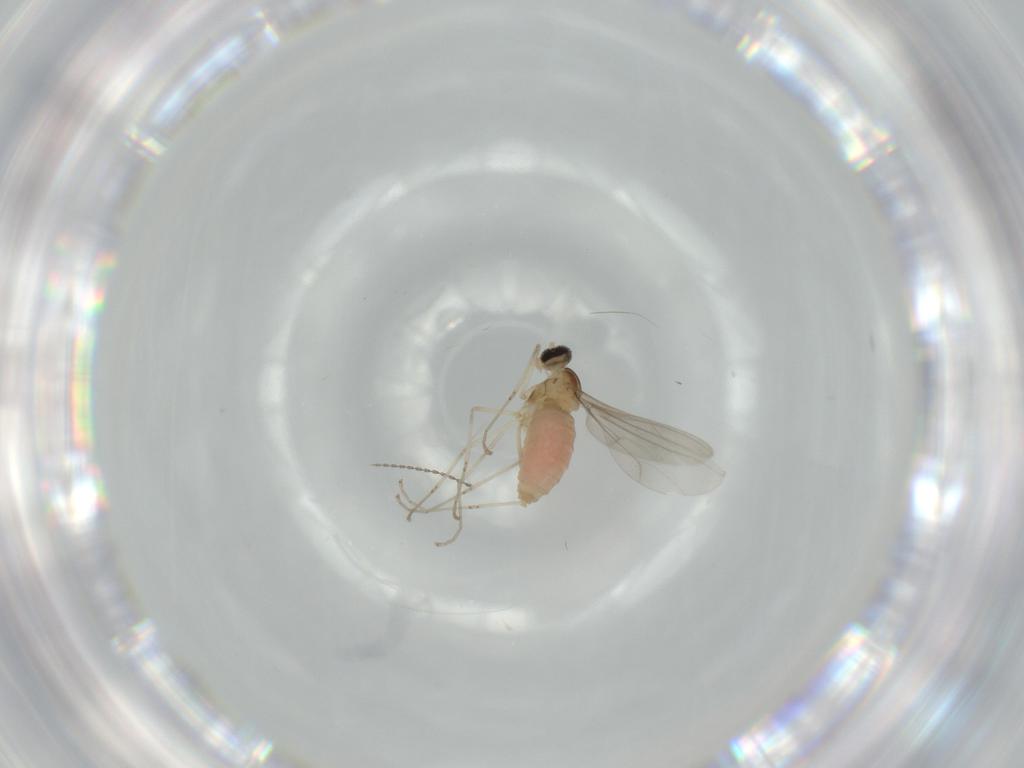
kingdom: Animalia
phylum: Arthropoda
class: Insecta
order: Diptera
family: Cecidomyiidae
